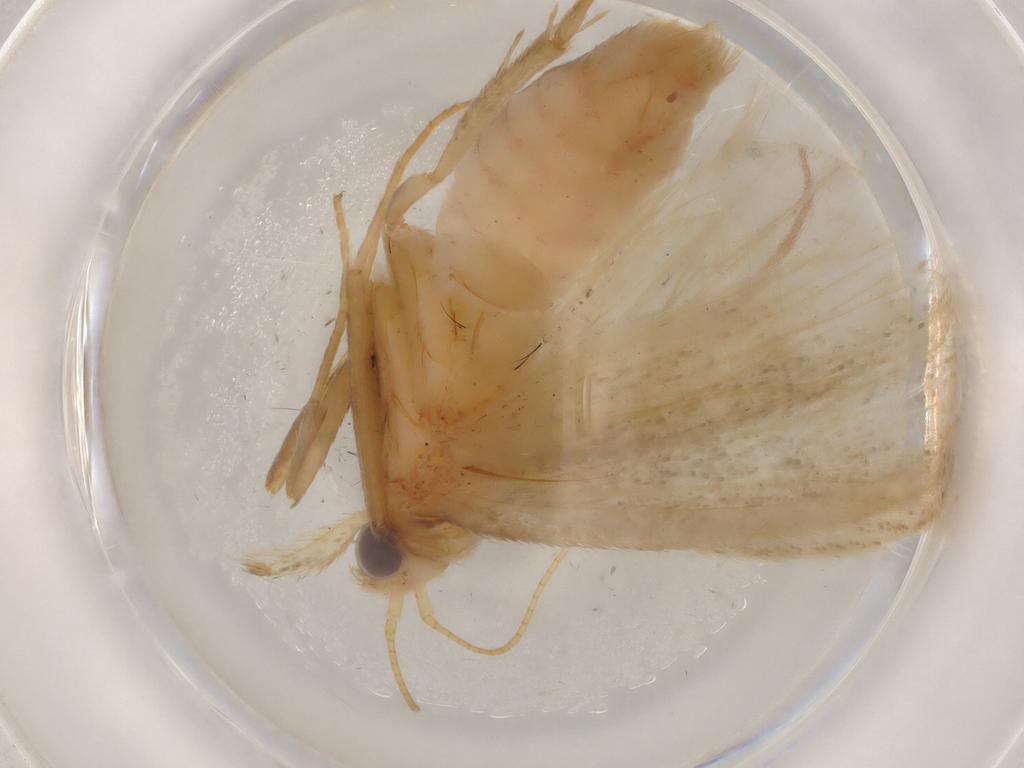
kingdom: Animalia
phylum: Arthropoda
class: Insecta
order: Lepidoptera
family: Pyralidae
